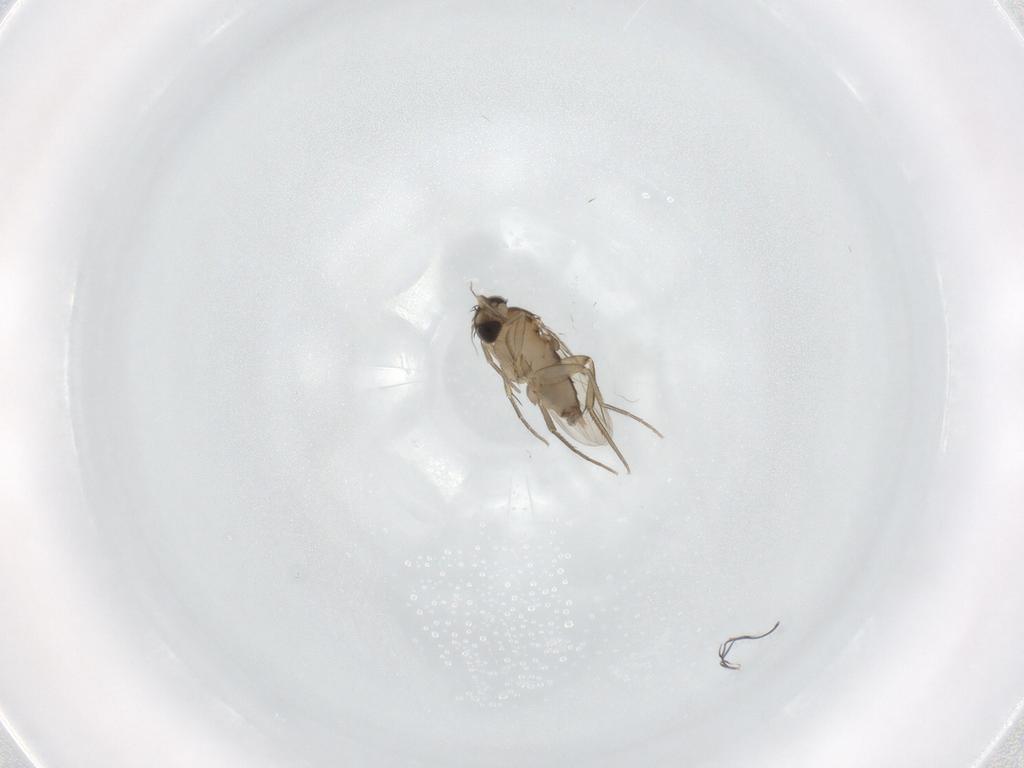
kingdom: Animalia
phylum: Arthropoda
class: Insecta
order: Diptera
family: Phoridae
